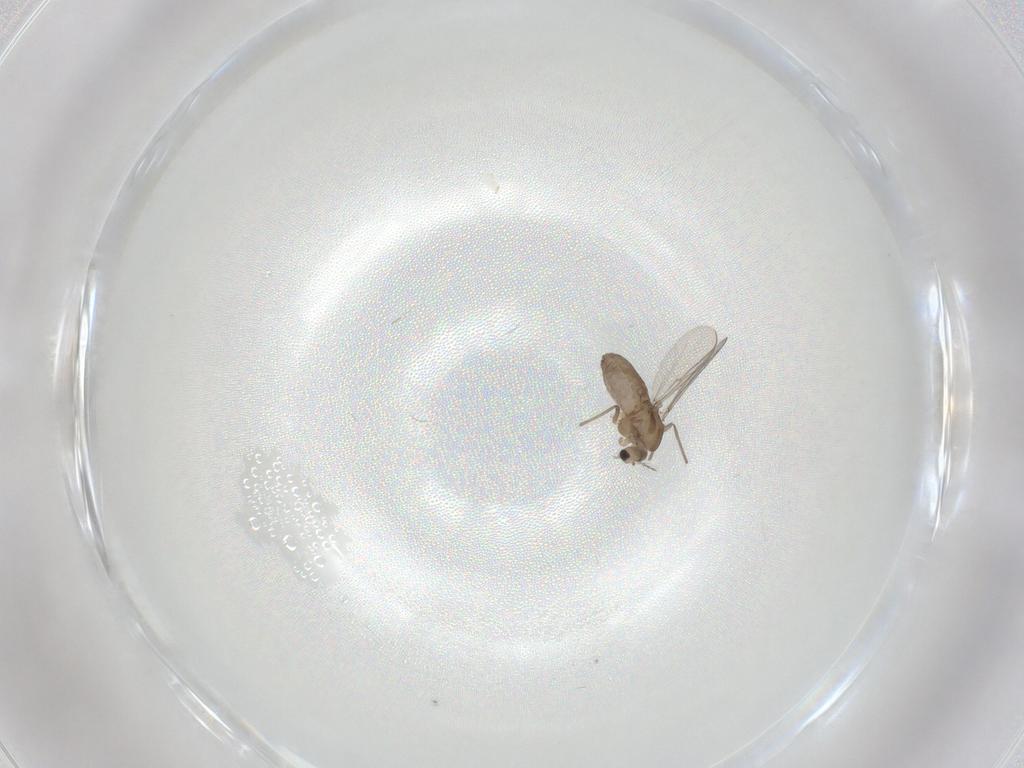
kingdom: Animalia
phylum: Arthropoda
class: Insecta
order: Diptera
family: Chironomidae
